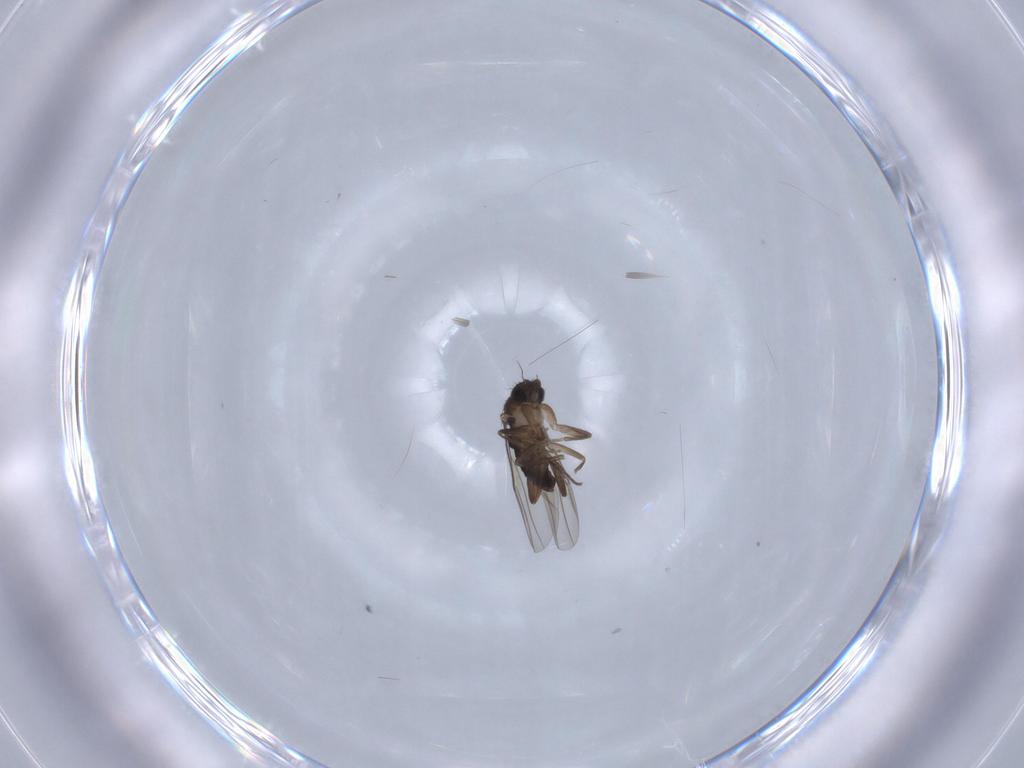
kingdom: Animalia
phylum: Arthropoda
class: Insecta
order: Diptera
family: Phoridae
